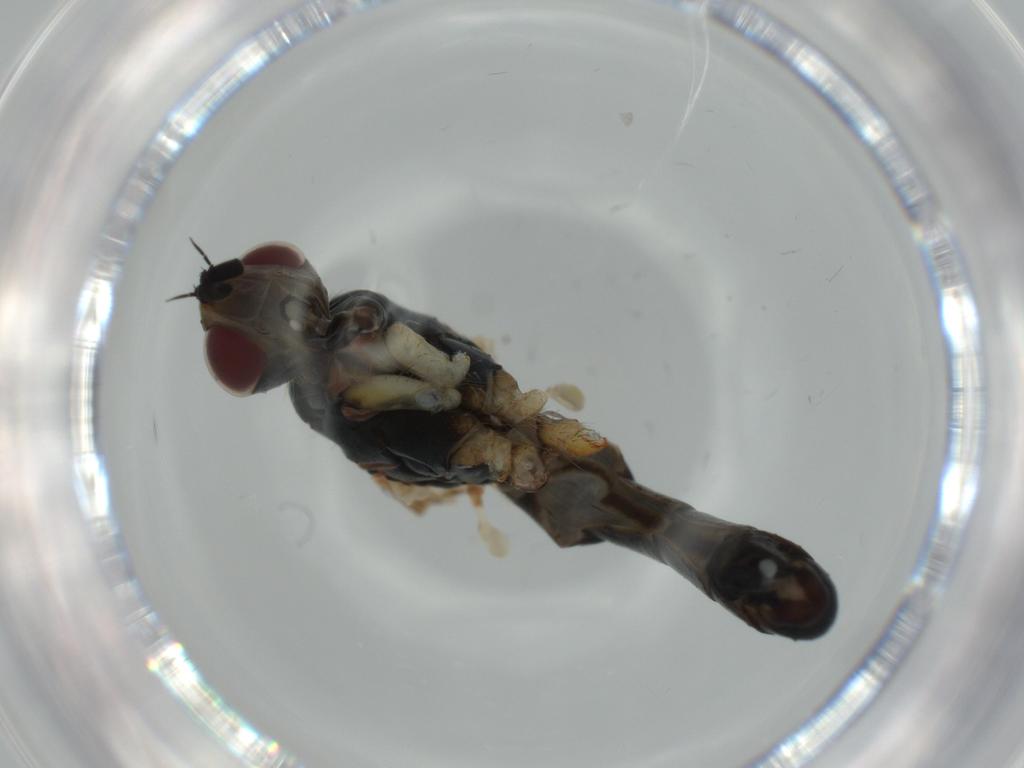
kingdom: Animalia
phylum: Arthropoda
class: Insecta
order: Diptera
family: Scathophagidae
